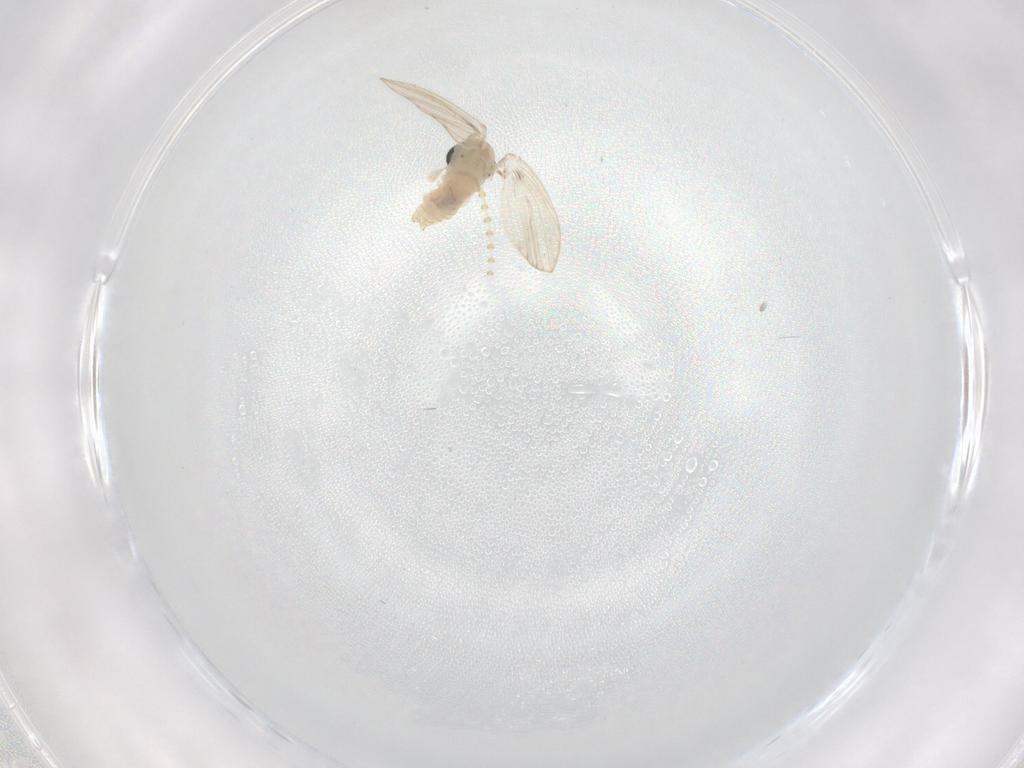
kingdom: Animalia
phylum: Arthropoda
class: Insecta
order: Diptera
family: Psychodidae
